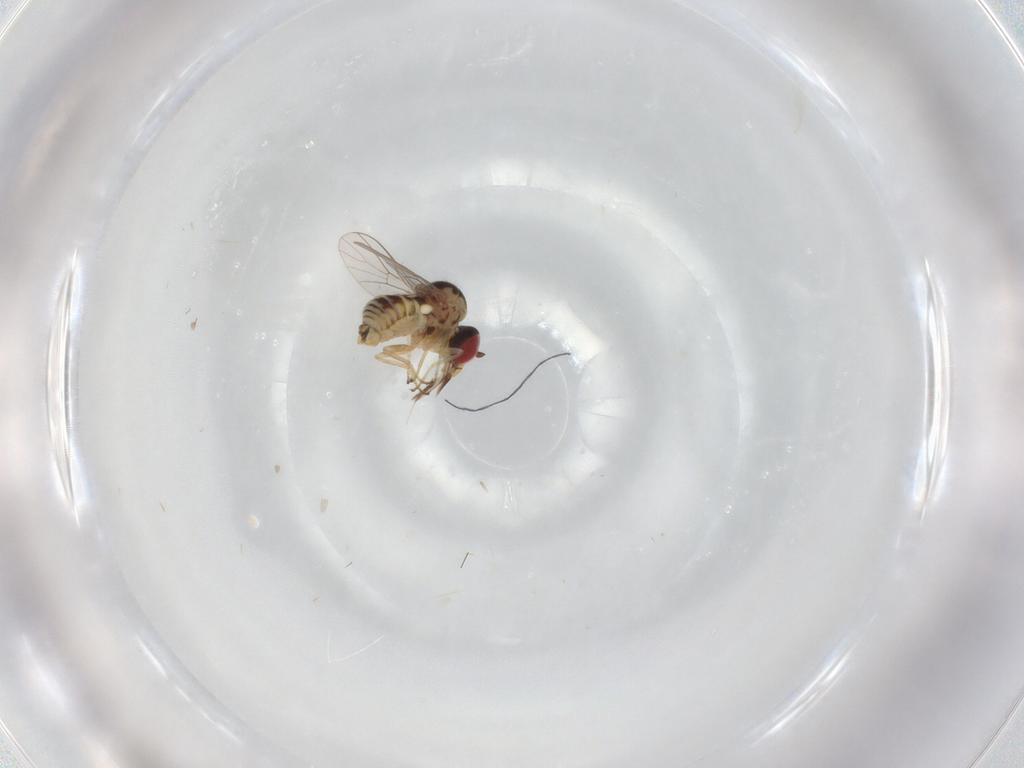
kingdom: Animalia
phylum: Arthropoda
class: Insecta
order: Diptera
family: Mythicomyiidae
